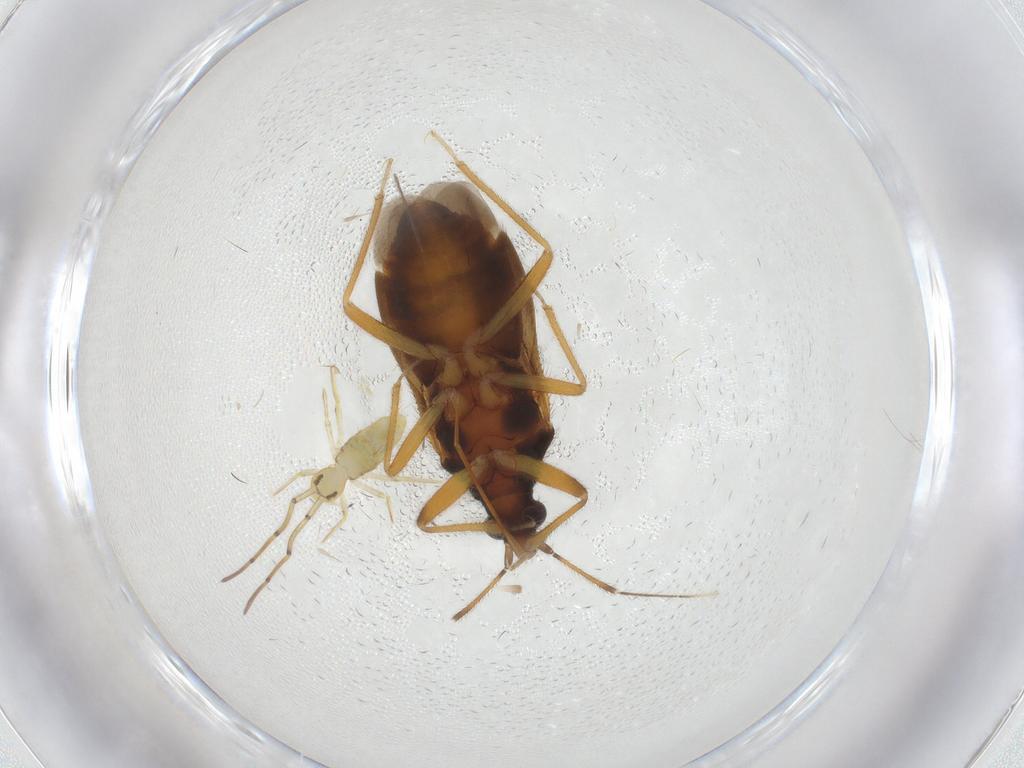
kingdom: Animalia
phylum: Arthropoda
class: Insecta
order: Hemiptera
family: Anthocoridae
